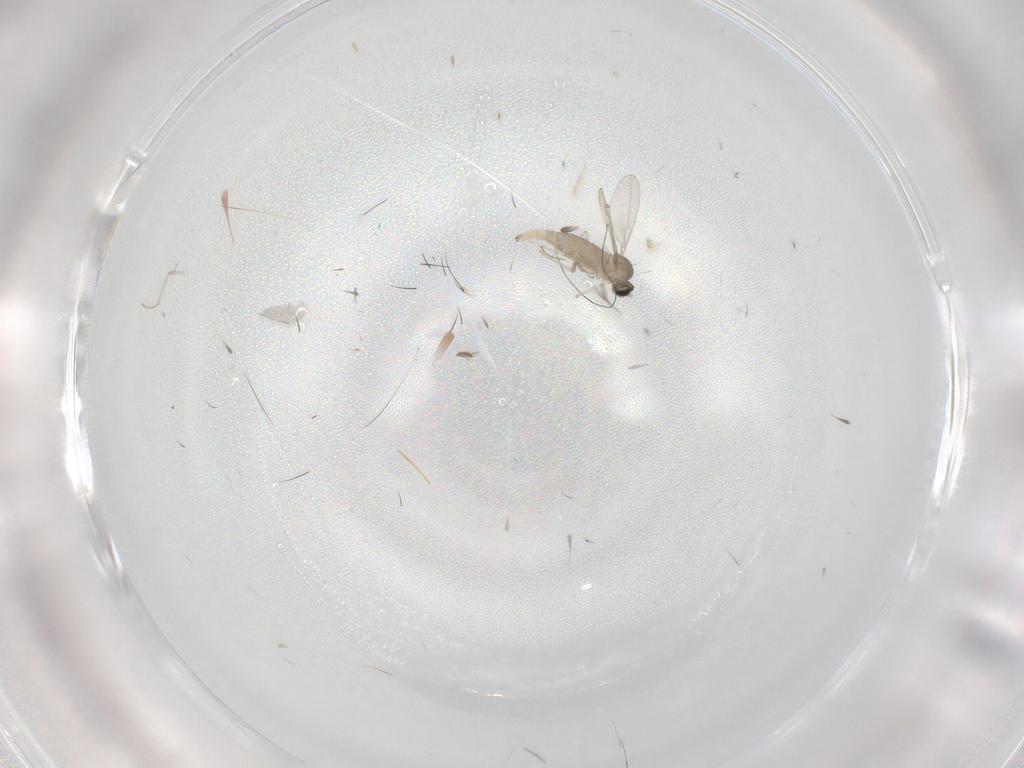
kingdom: Animalia
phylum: Arthropoda
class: Insecta
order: Diptera
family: Cecidomyiidae
